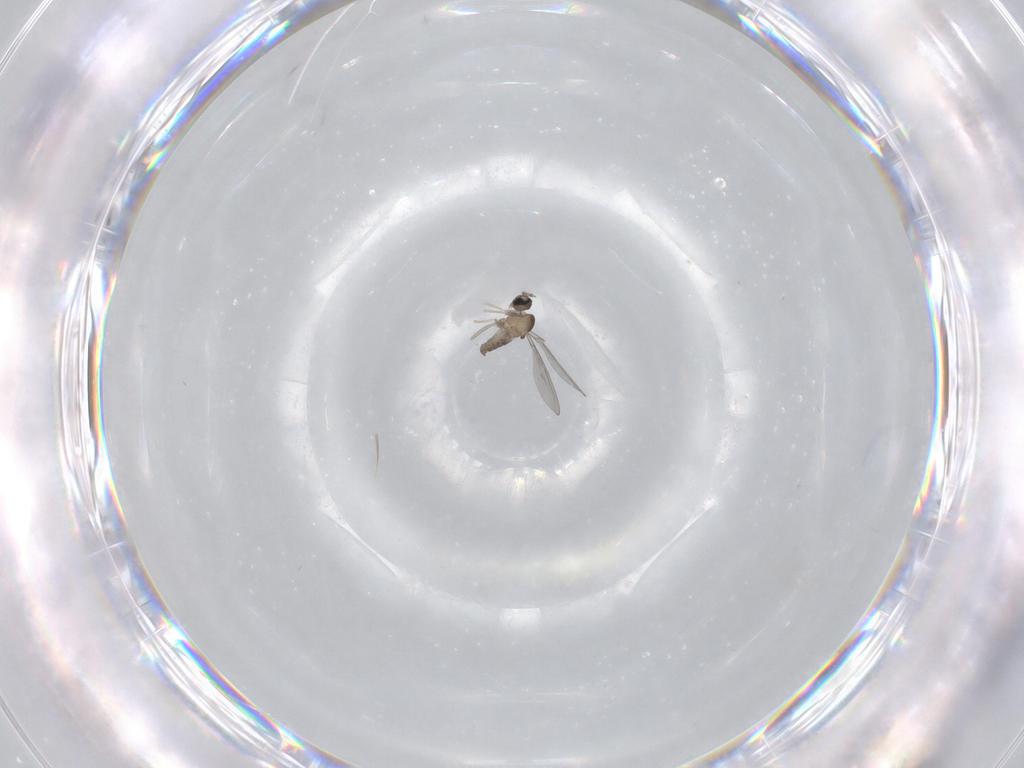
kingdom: Animalia
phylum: Arthropoda
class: Insecta
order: Diptera
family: Cecidomyiidae
